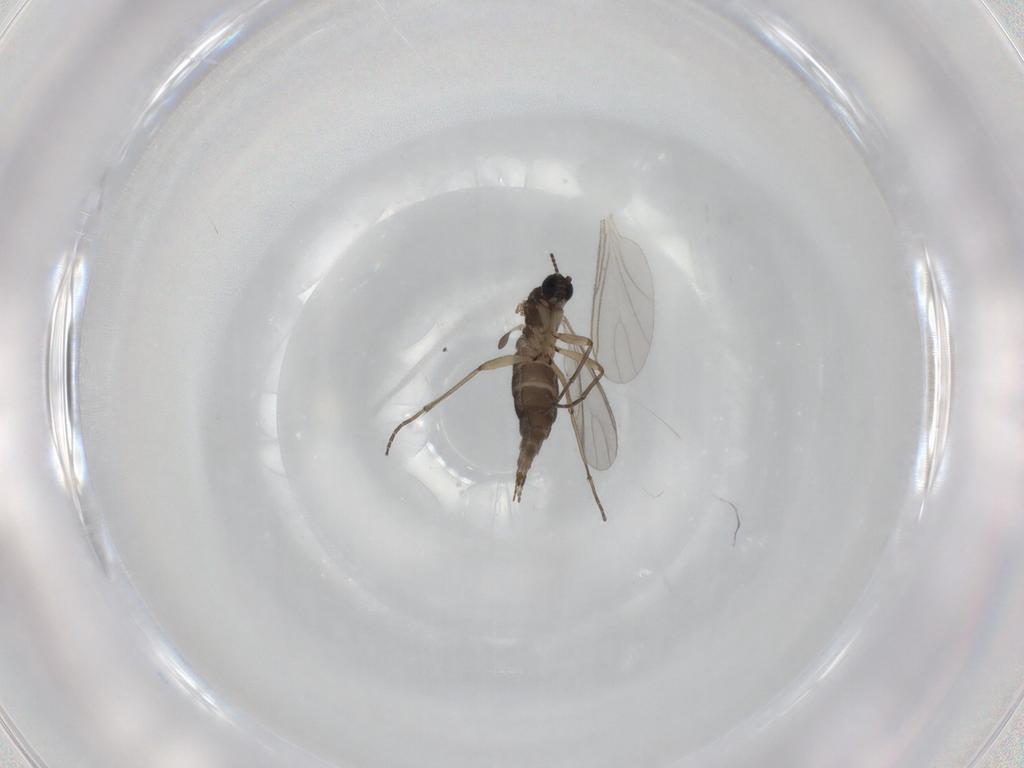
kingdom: Animalia
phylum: Arthropoda
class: Insecta
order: Diptera
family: Sciaridae
